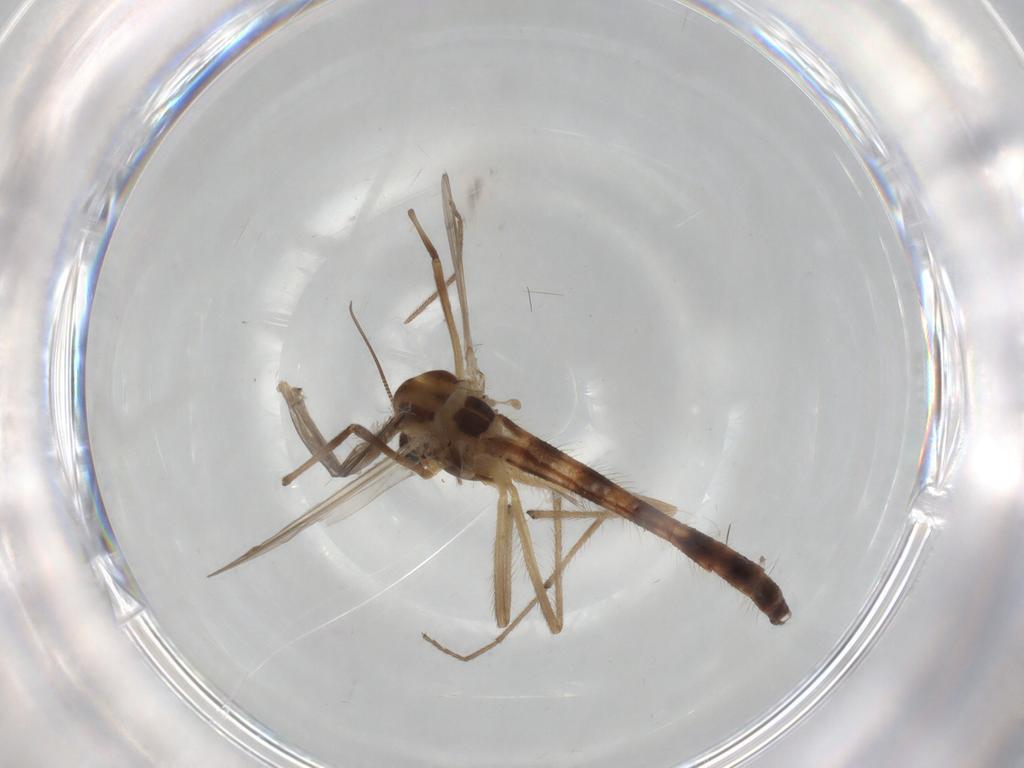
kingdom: Animalia
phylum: Arthropoda
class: Insecta
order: Diptera
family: Chironomidae
